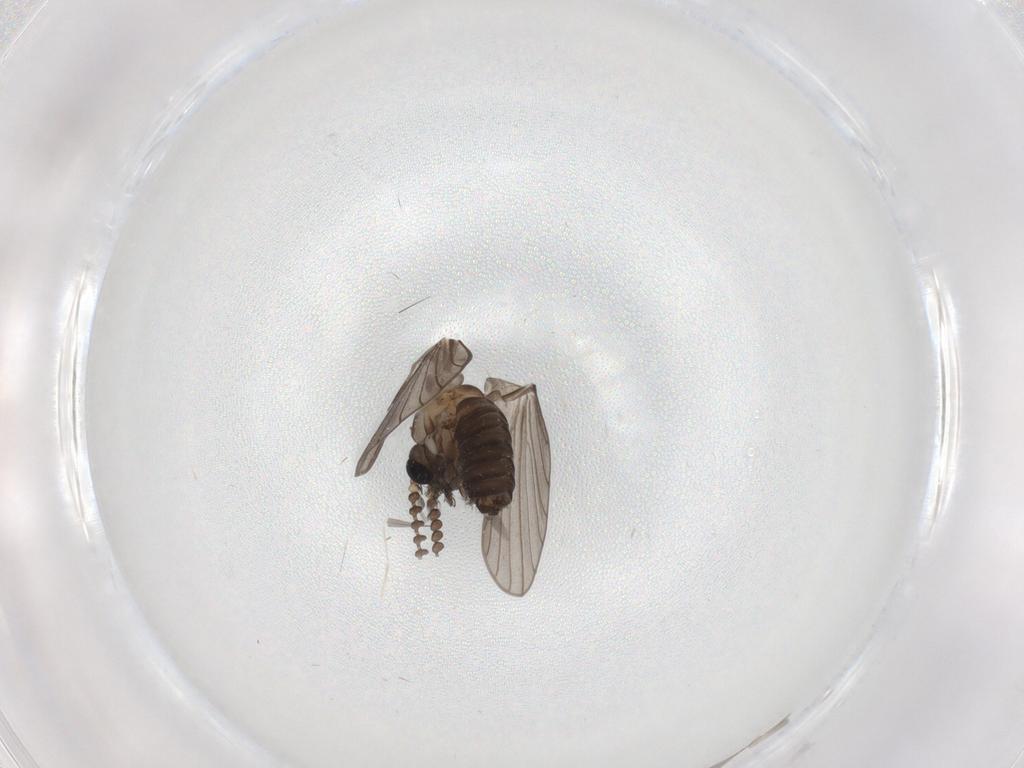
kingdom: Animalia
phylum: Arthropoda
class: Insecta
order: Diptera
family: Psychodidae
